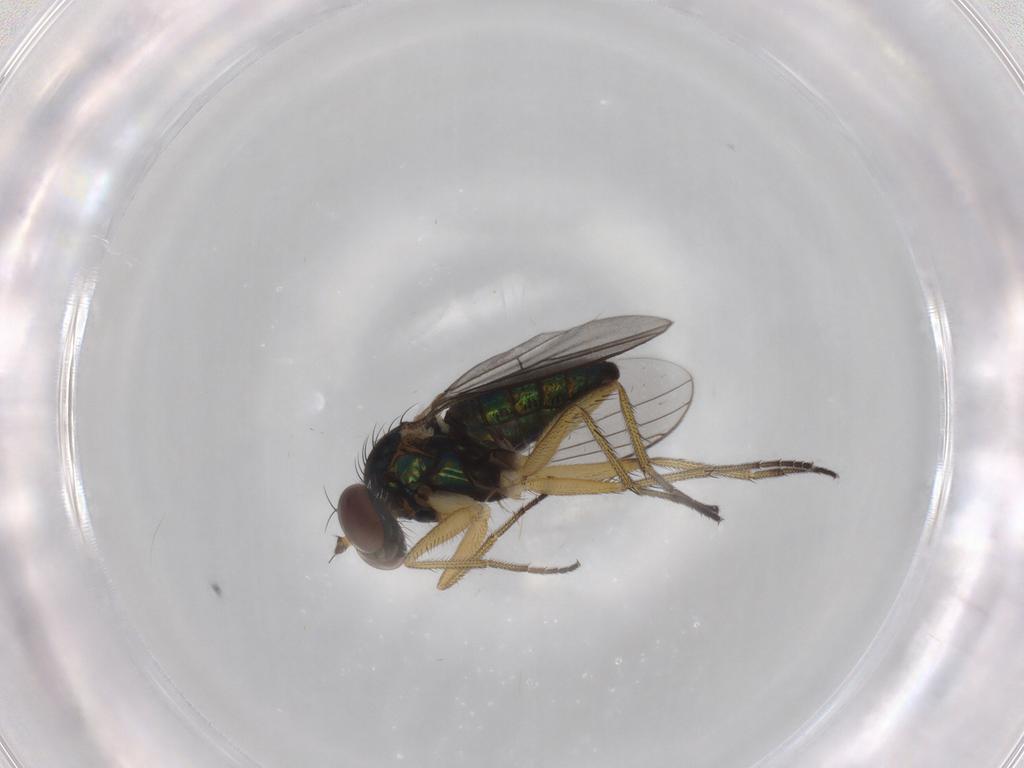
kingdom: Animalia
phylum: Arthropoda
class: Insecta
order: Diptera
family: Dolichopodidae
